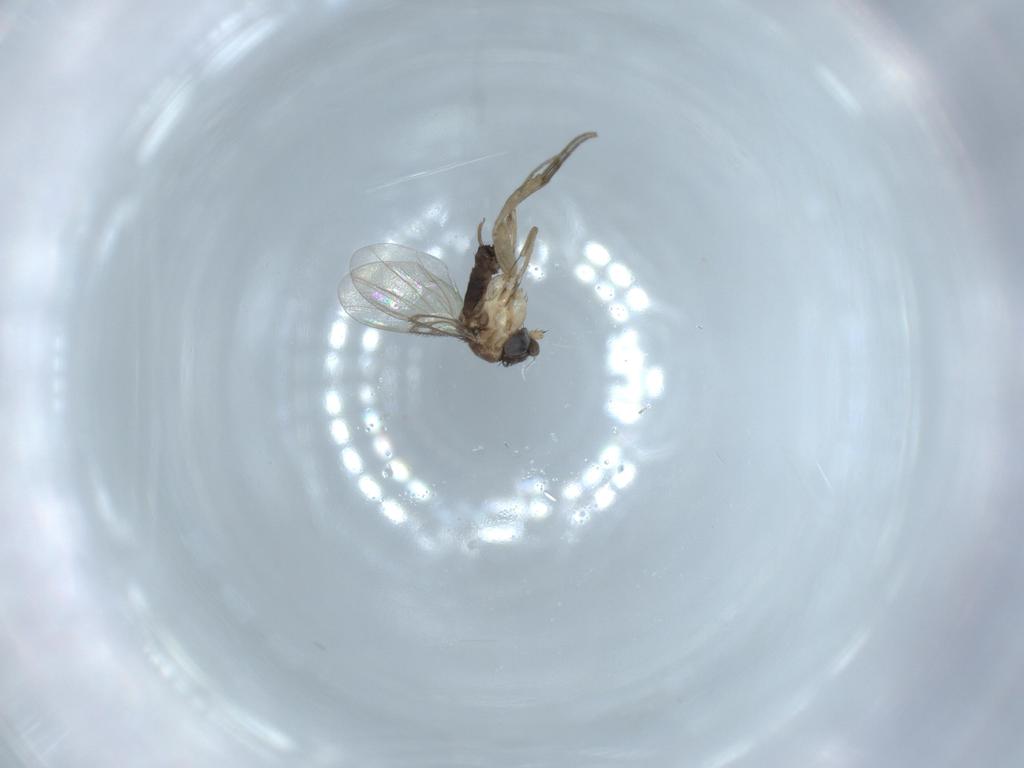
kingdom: Animalia
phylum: Arthropoda
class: Insecta
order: Diptera
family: Phoridae
